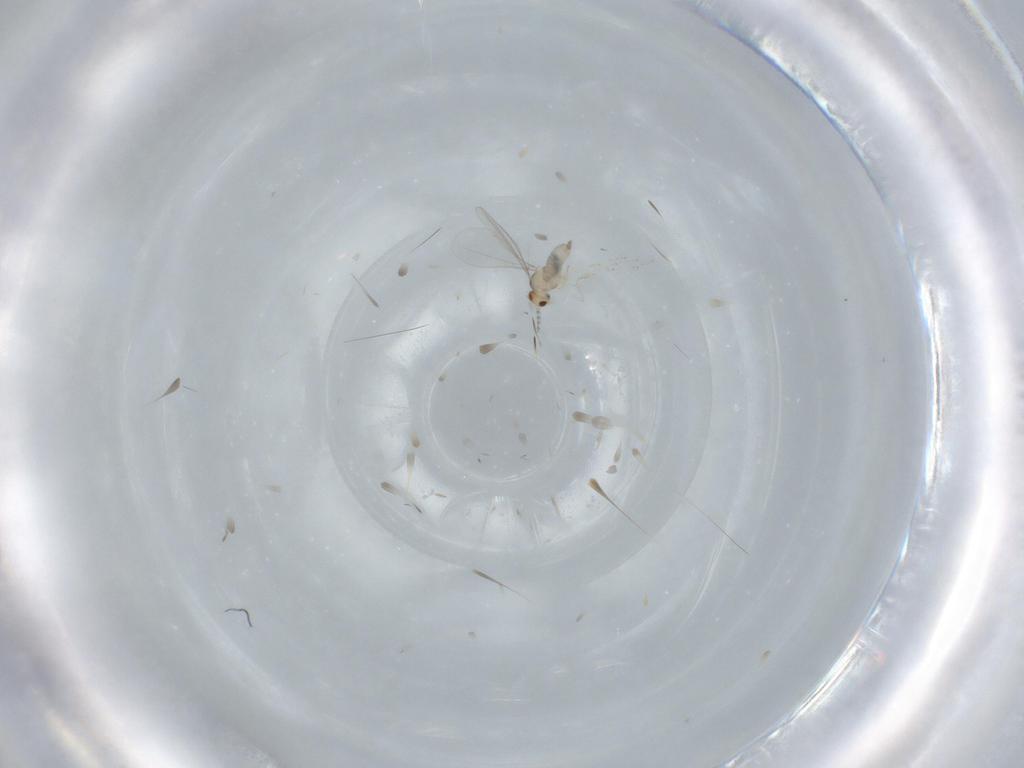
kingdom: Animalia
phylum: Arthropoda
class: Insecta
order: Diptera
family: Cecidomyiidae
